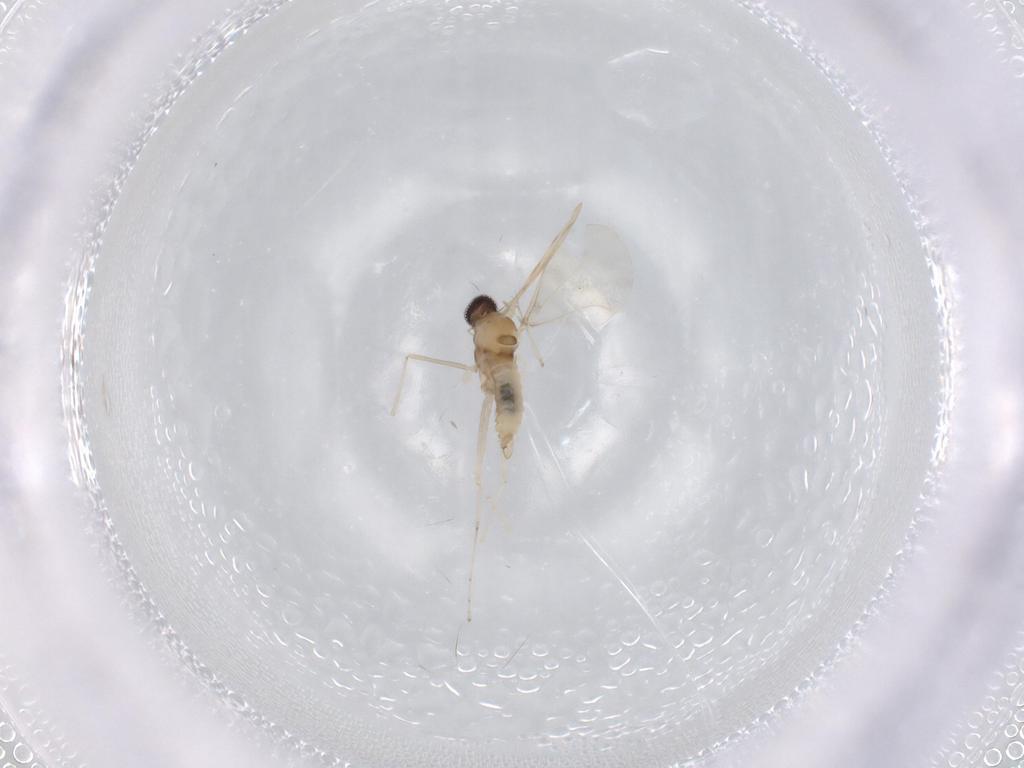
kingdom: Animalia
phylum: Arthropoda
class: Insecta
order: Diptera
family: Cecidomyiidae
